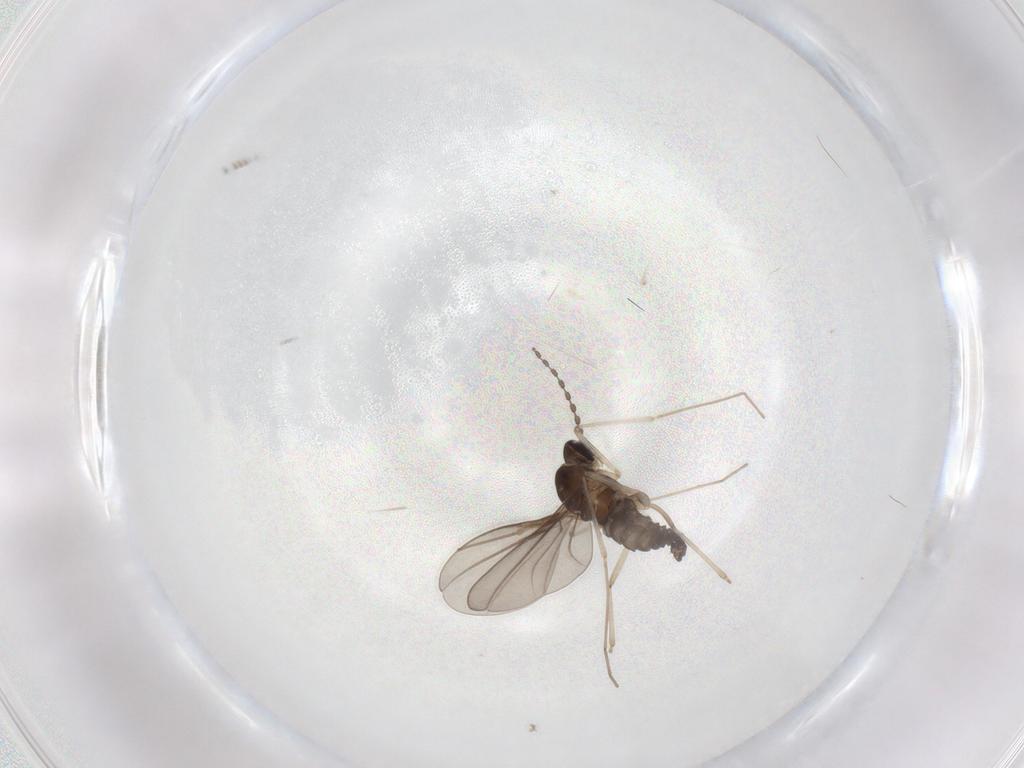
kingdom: Animalia
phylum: Arthropoda
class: Insecta
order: Diptera
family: Cecidomyiidae
